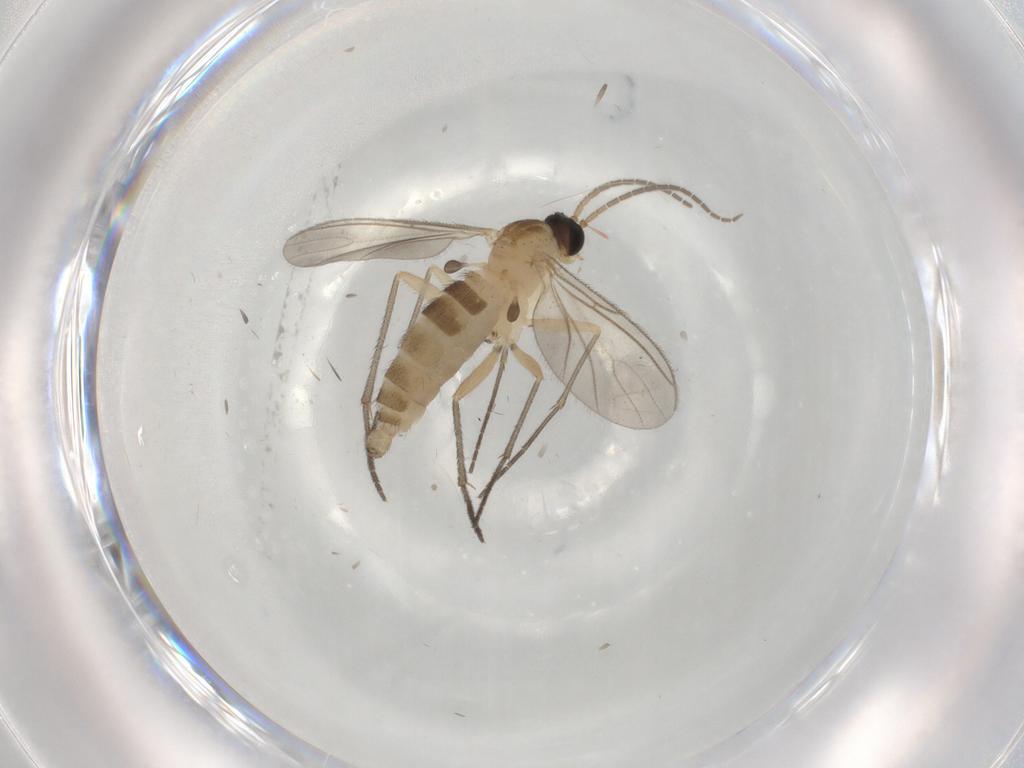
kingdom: Animalia
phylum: Arthropoda
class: Insecta
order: Diptera
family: Sciaridae
